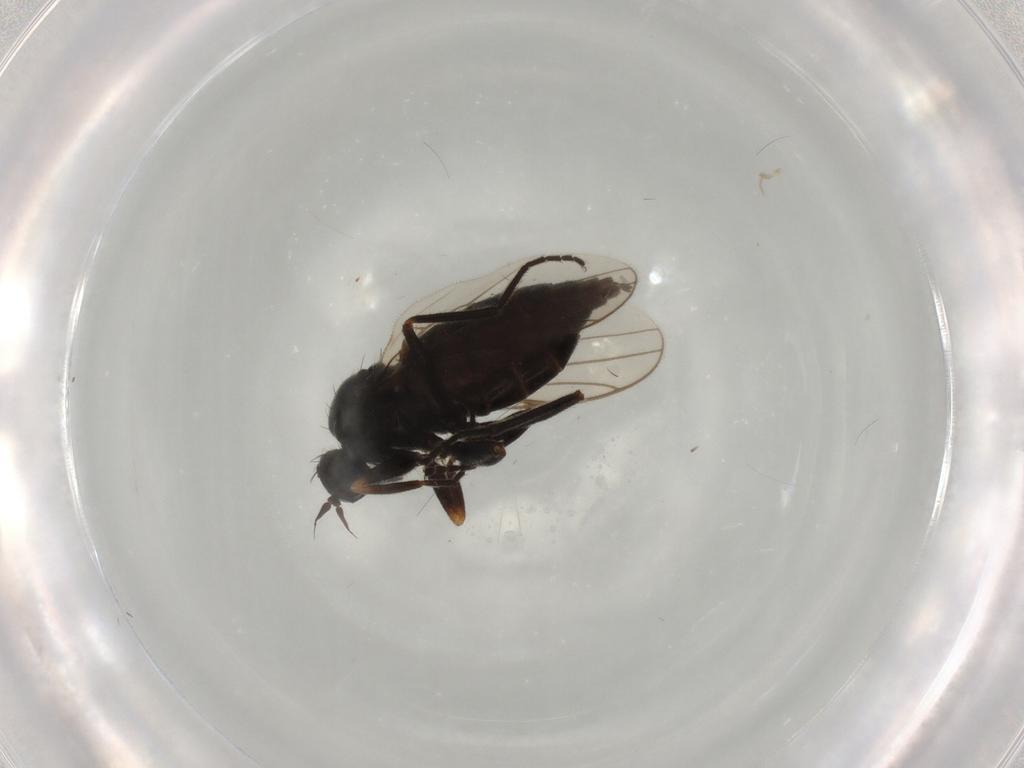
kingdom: Animalia
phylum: Arthropoda
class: Insecta
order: Diptera
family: Hybotidae
